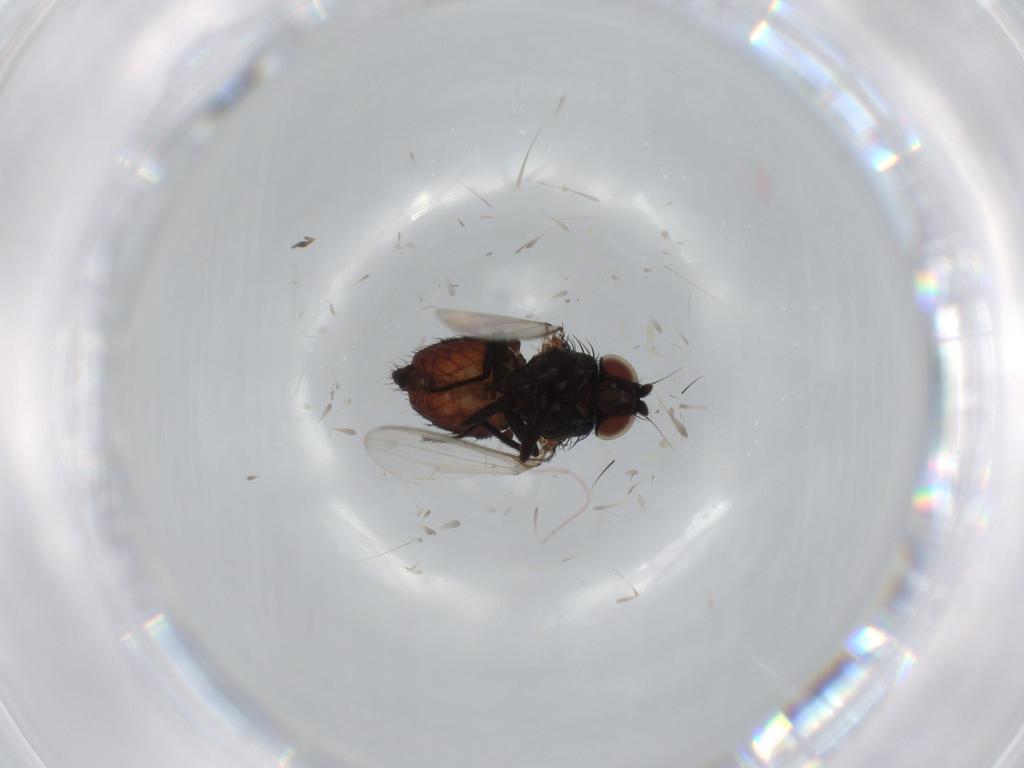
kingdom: Animalia
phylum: Arthropoda
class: Insecta
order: Diptera
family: Milichiidae
